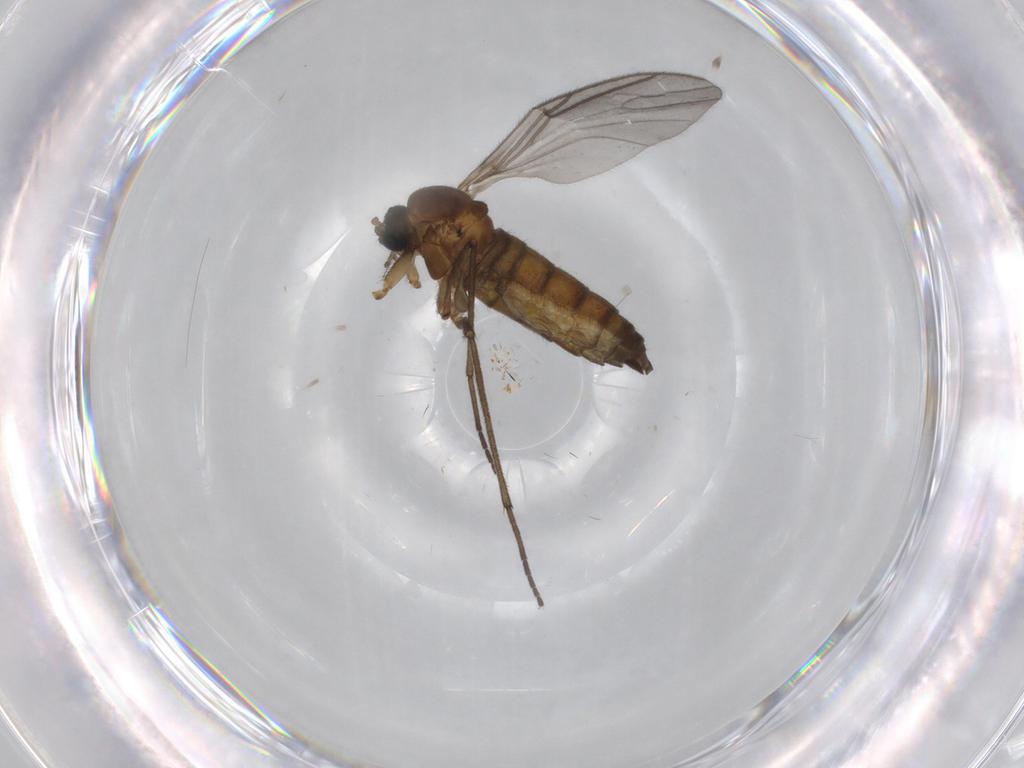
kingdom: Animalia
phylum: Arthropoda
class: Insecta
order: Diptera
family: Sciaridae
